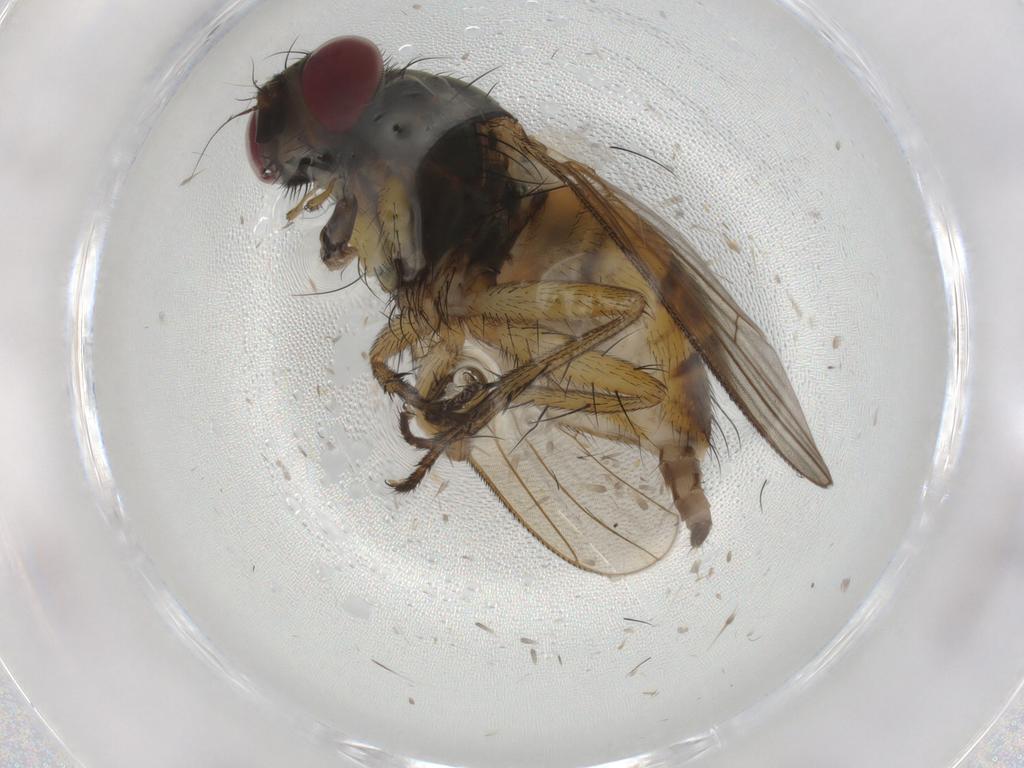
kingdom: Animalia
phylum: Arthropoda
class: Insecta
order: Diptera
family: Muscidae
